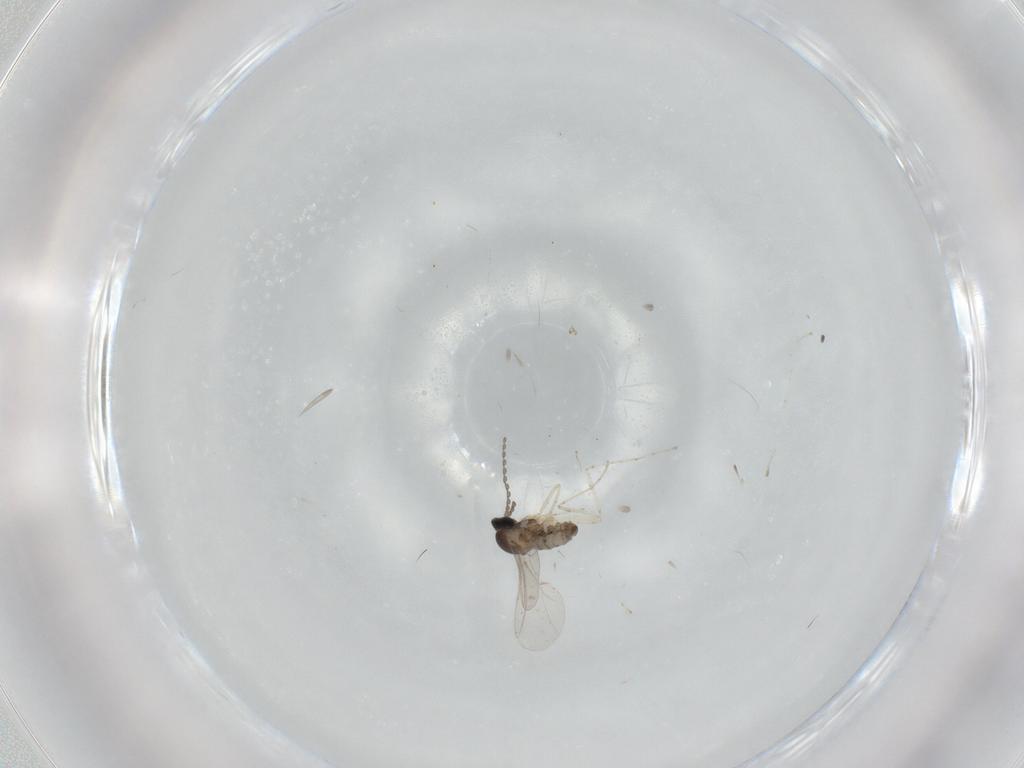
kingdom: Animalia
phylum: Arthropoda
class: Insecta
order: Diptera
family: Cecidomyiidae
